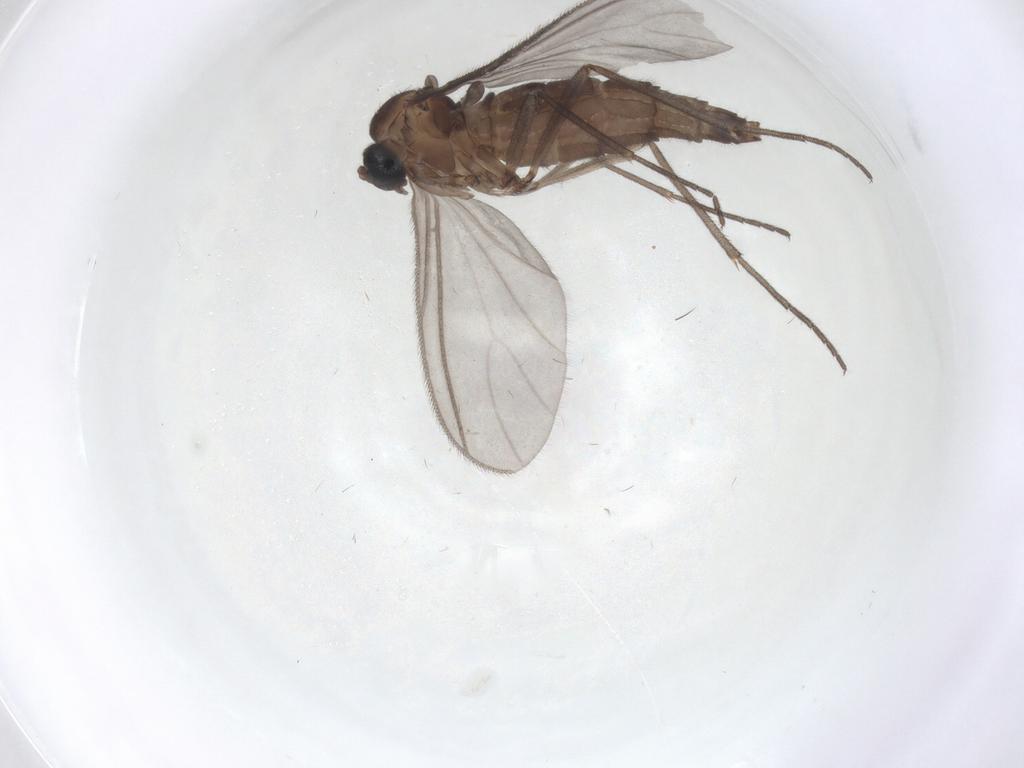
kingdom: Animalia
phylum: Arthropoda
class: Insecta
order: Diptera
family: Sciaridae
